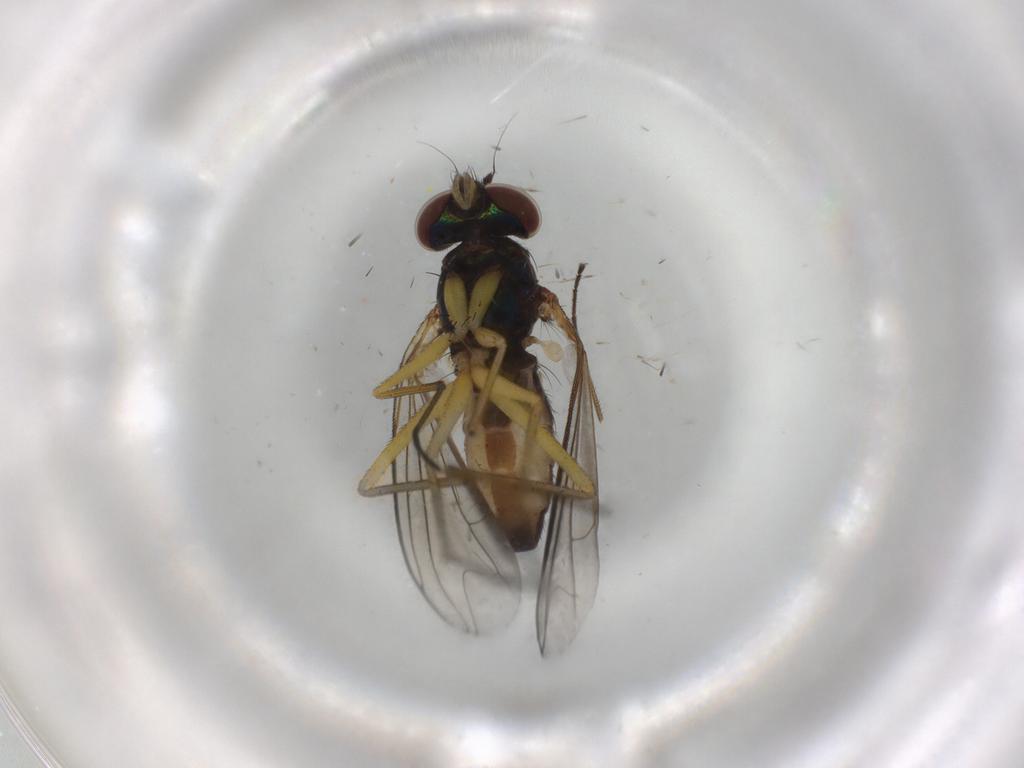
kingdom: Animalia
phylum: Arthropoda
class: Insecta
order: Diptera
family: Dolichopodidae
